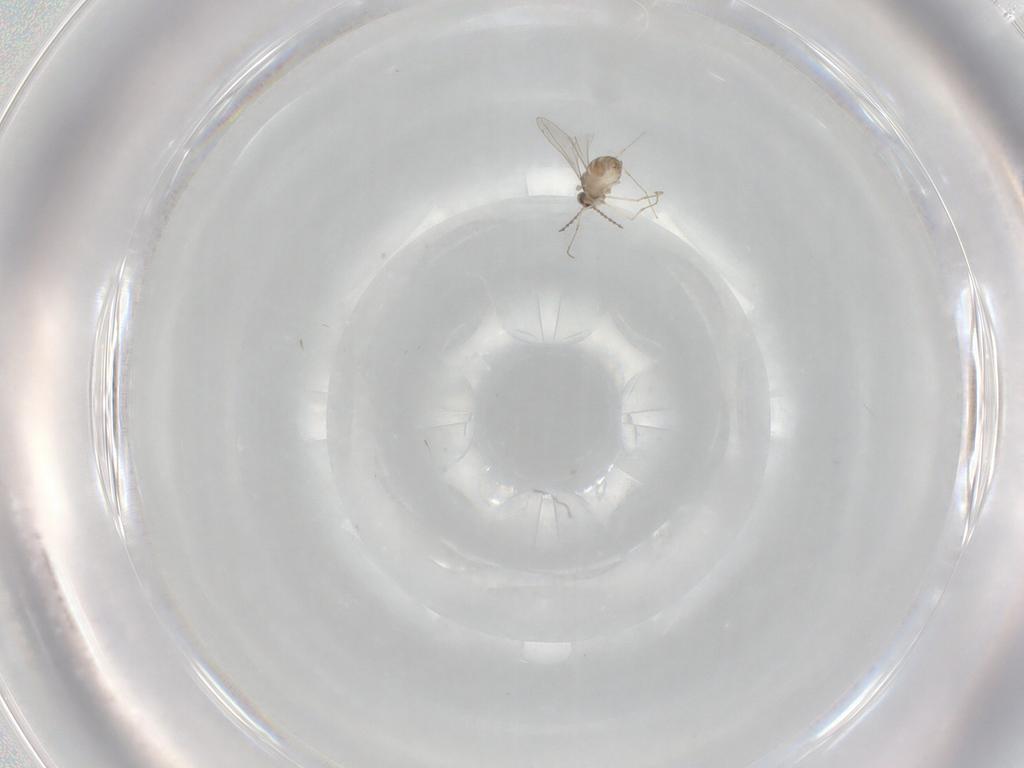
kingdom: Animalia
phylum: Arthropoda
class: Insecta
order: Diptera
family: Cecidomyiidae
